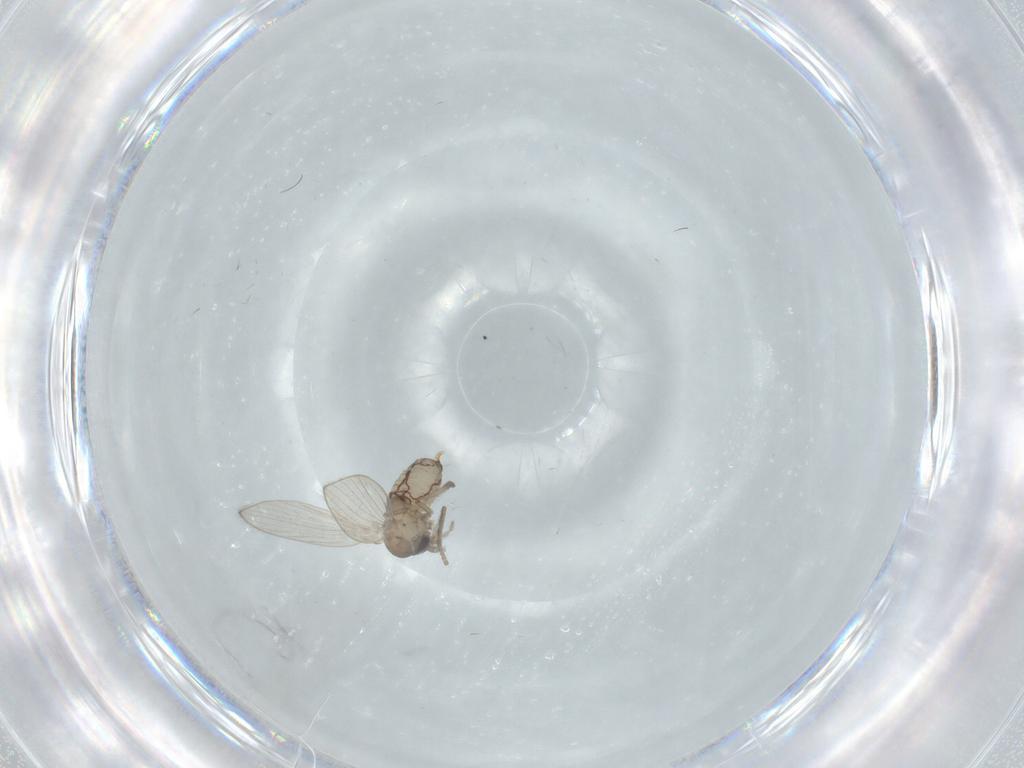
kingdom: Animalia
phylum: Arthropoda
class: Insecta
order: Diptera
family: Psychodidae
